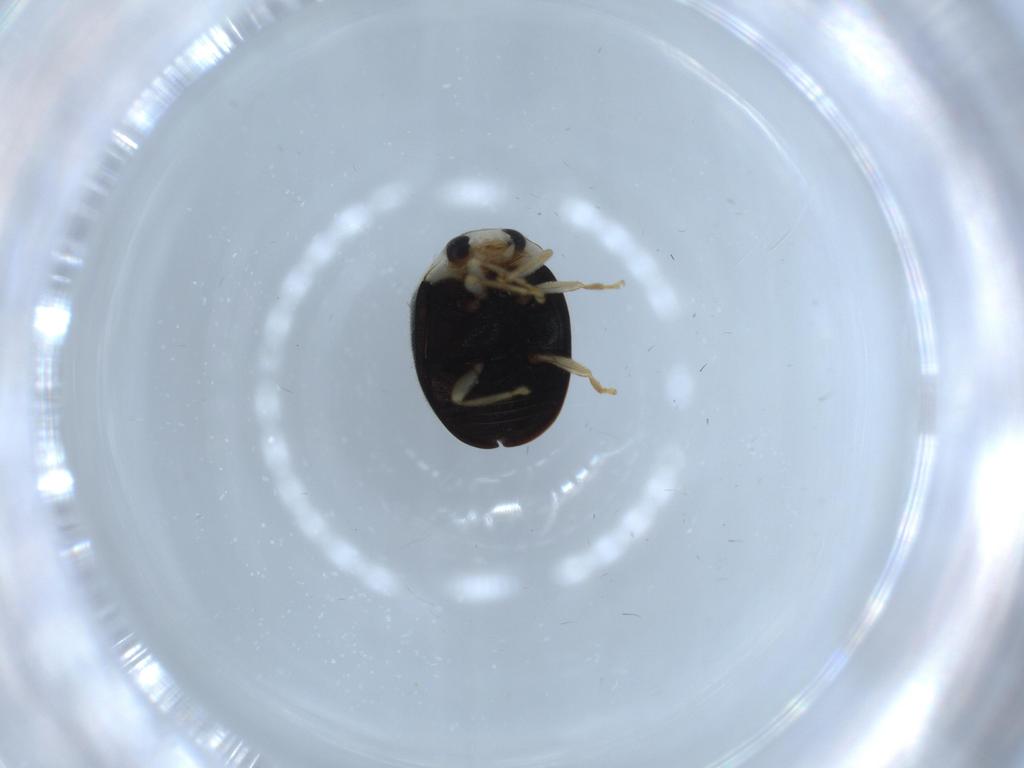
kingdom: Animalia
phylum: Arthropoda
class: Insecta
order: Coleoptera
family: Coccinellidae
